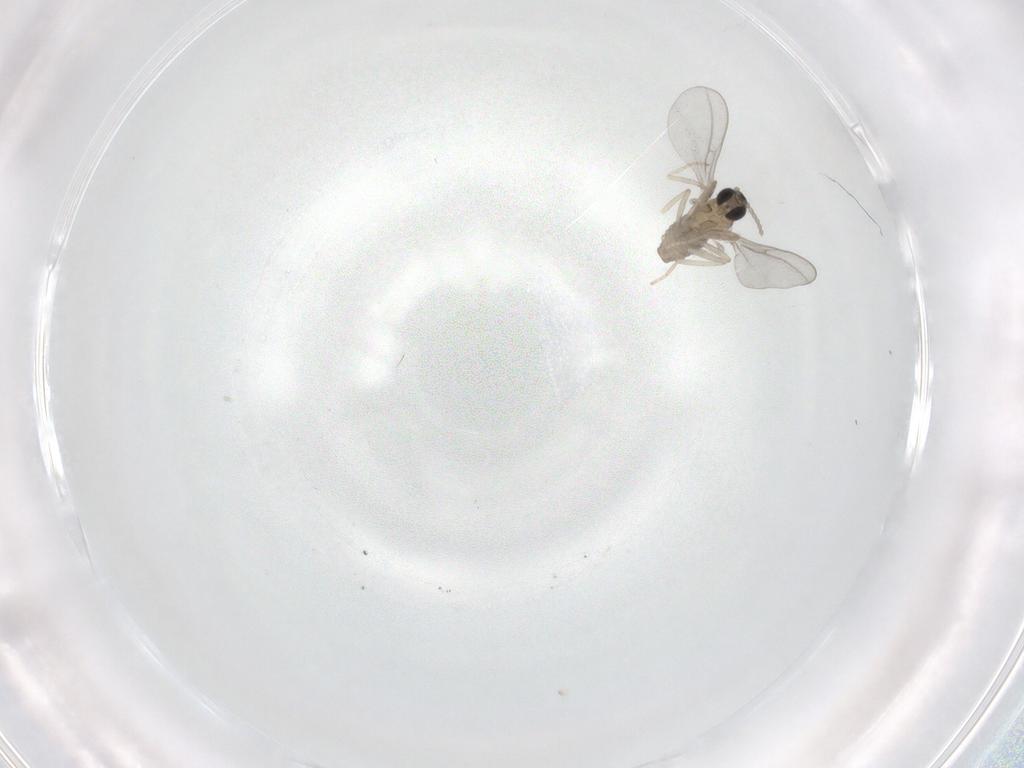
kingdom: Animalia
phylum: Arthropoda
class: Insecta
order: Diptera
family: Cecidomyiidae
